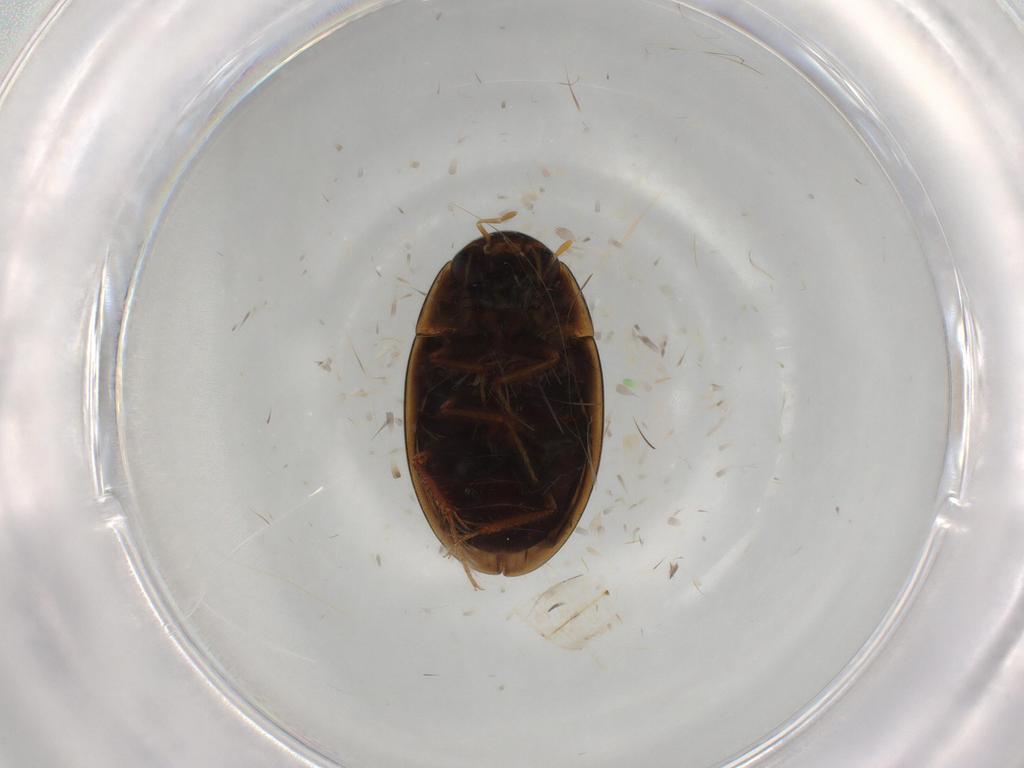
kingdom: Animalia
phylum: Arthropoda
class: Insecta
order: Coleoptera
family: Hydrophilidae
